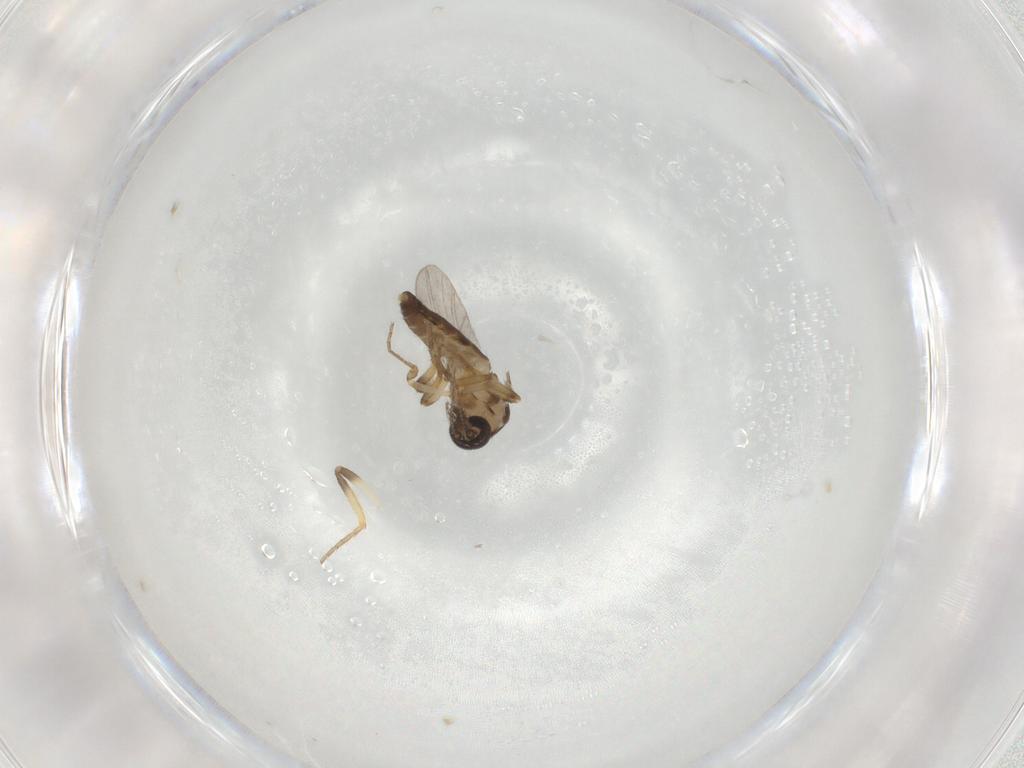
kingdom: Animalia
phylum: Arthropoda
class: Insecta
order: Diptera
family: Ceratopogonidae
